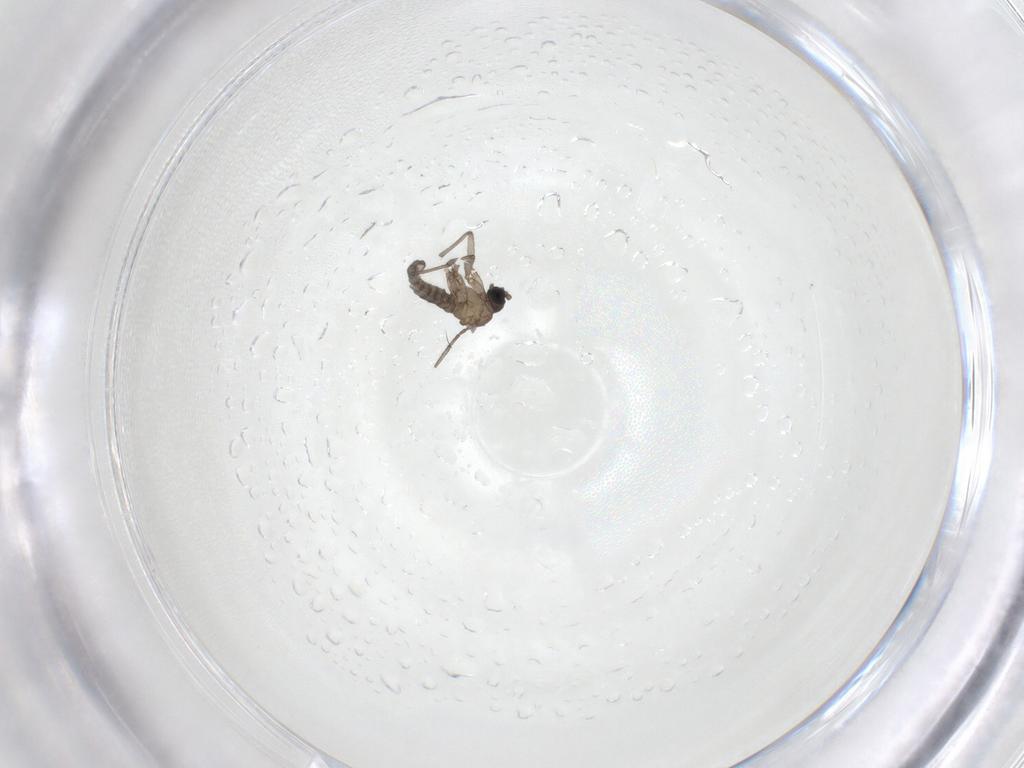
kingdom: Animalia
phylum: Arthropoda
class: Insecta
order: Diptera
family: Sciaridae
